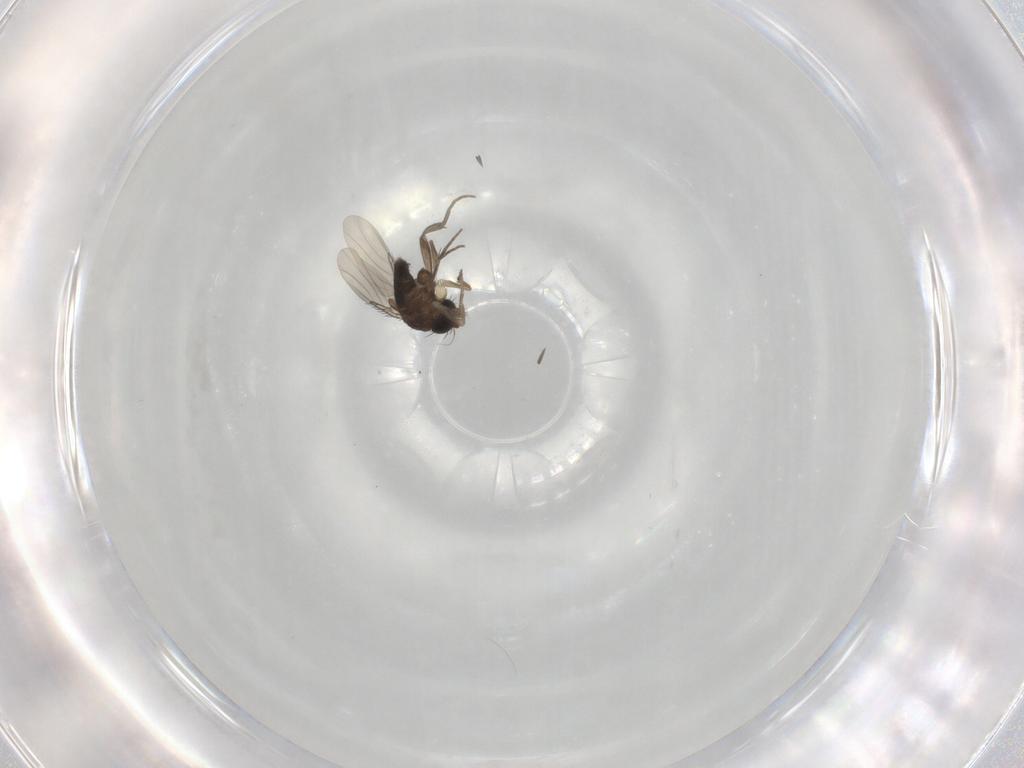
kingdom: Animalia
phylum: Arthropoda
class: Insecta
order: Diptera
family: Phoridae
